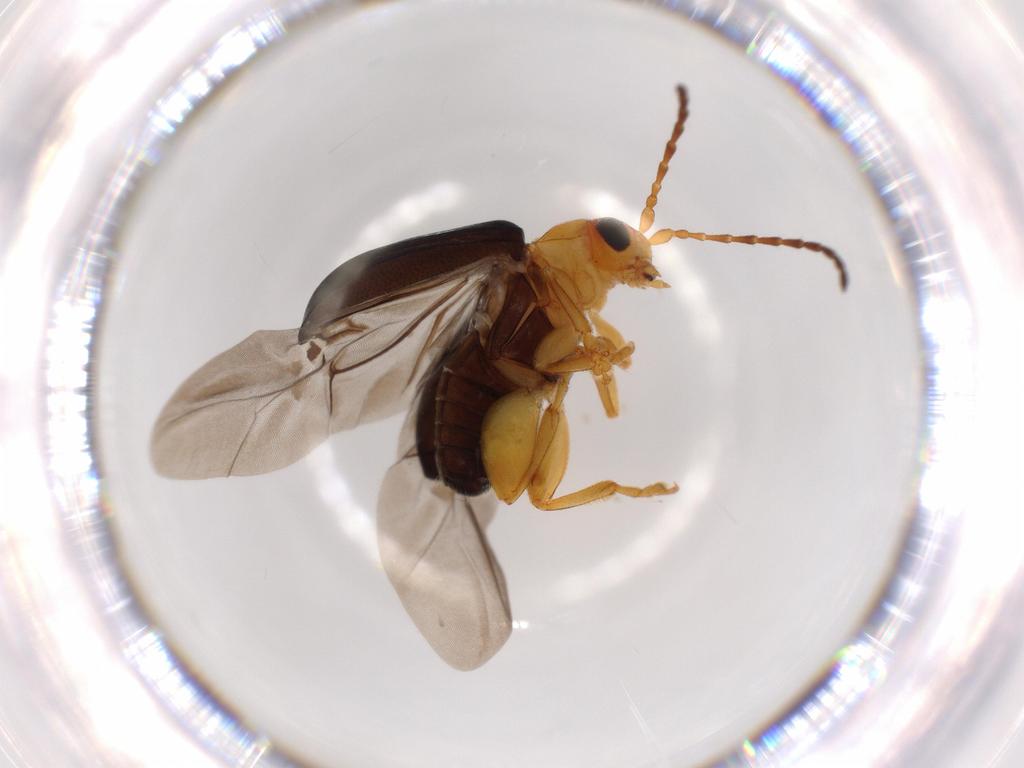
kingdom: Animalia
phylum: Arthropoda
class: Insecta
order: Coleoptera
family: Chrysomelidae
